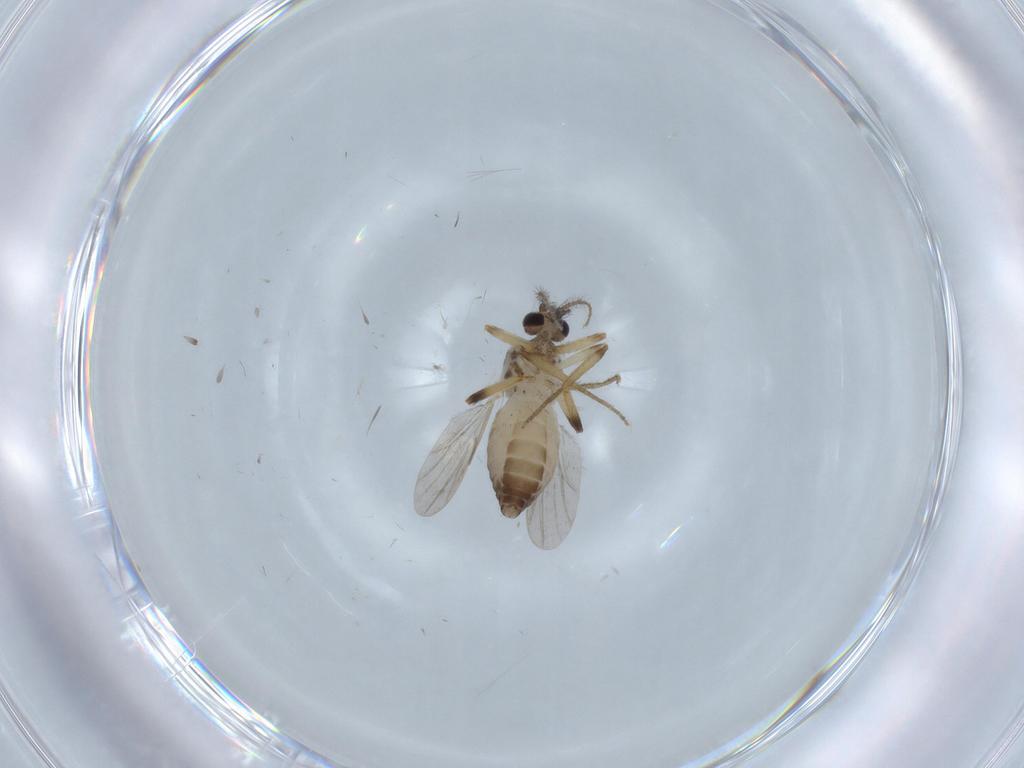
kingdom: Animalia
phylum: Arthropoda
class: Insecta
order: Diptera
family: Ceratopogonidae
